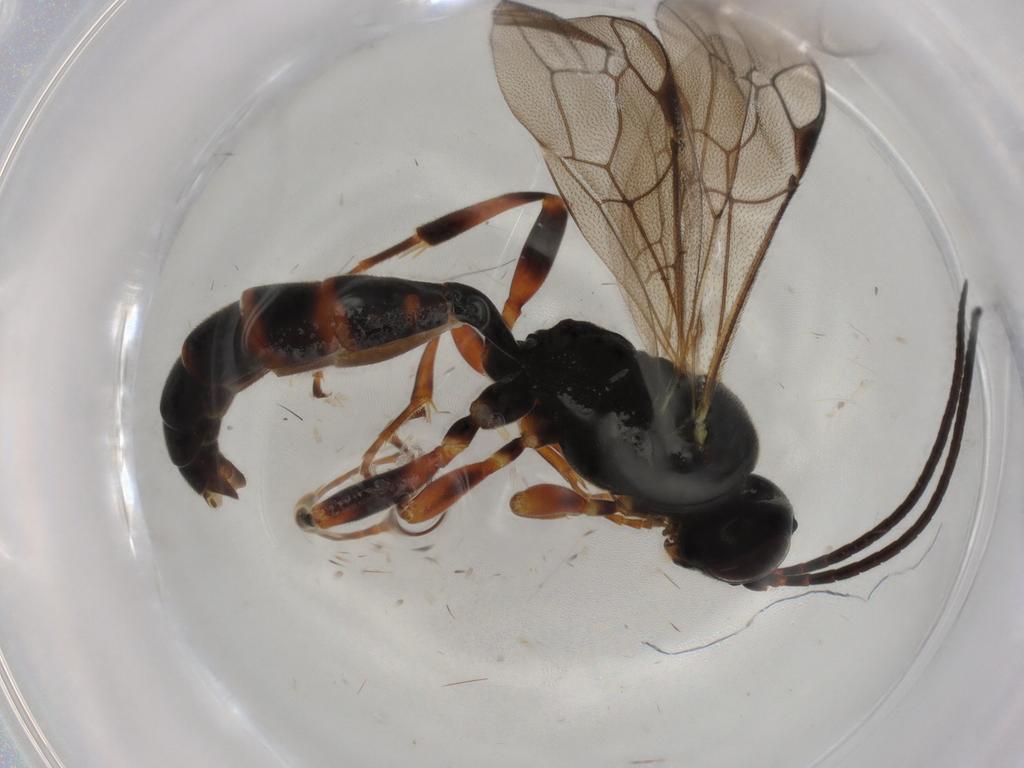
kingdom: Animalia
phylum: Arthropoda
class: Insecta
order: Hymenoptera
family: Ichneumonidae
